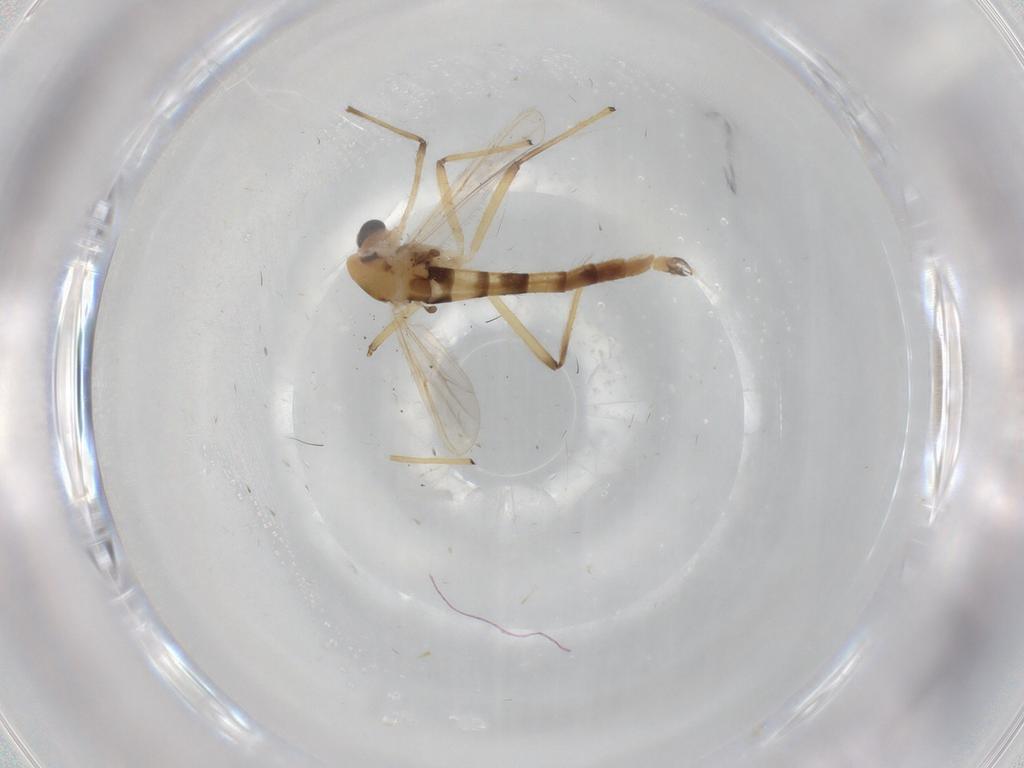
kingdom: Animalia
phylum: Arthropoda
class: Insecta
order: Diptera
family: Chironomidae
